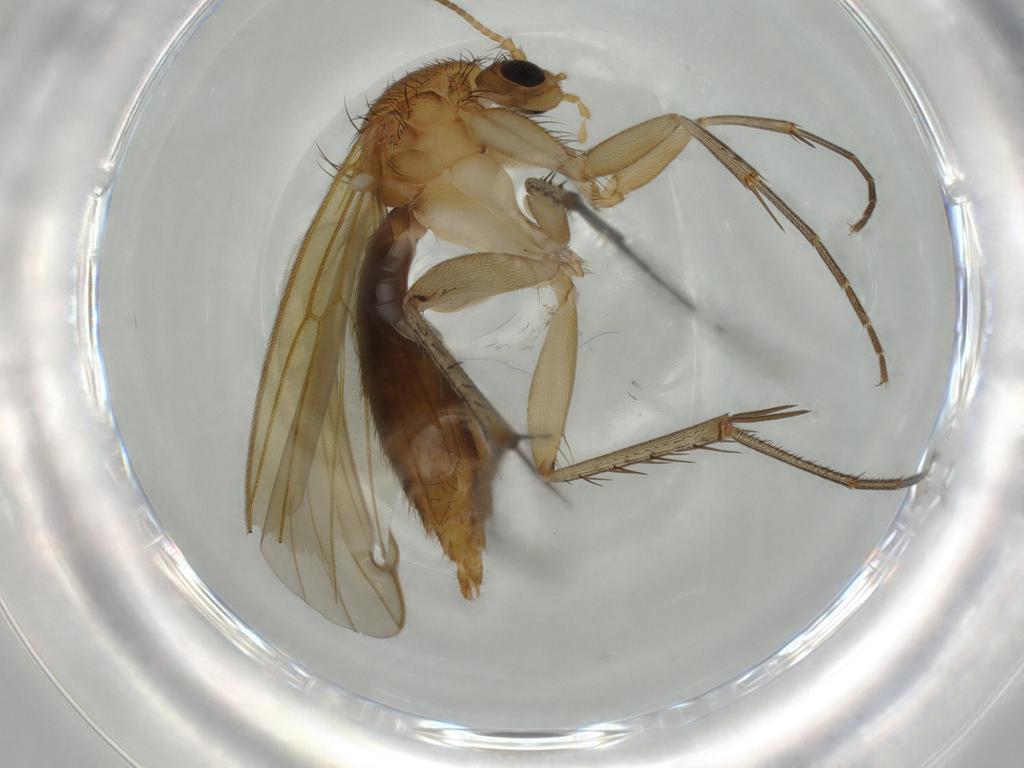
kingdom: Animalia
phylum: Arthropoda
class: Insecta
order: Diptera
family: Mycetophilidae
